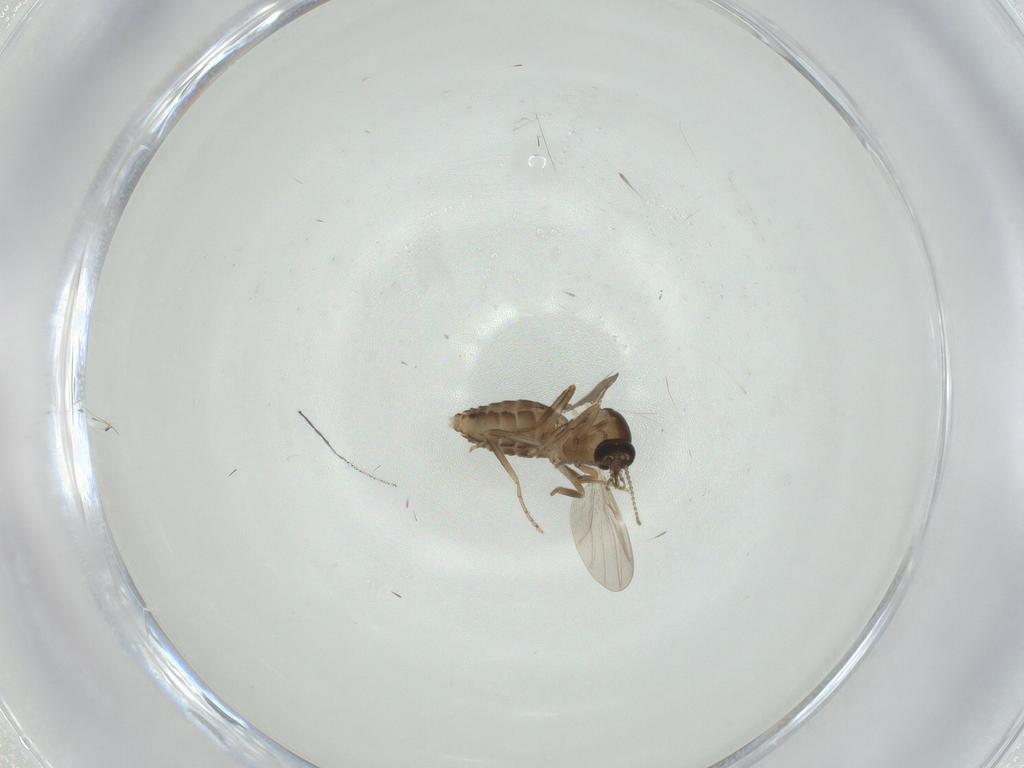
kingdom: Animalia
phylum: Arthropoda
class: Insecta
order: Diptera
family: Ceratopogonidae
